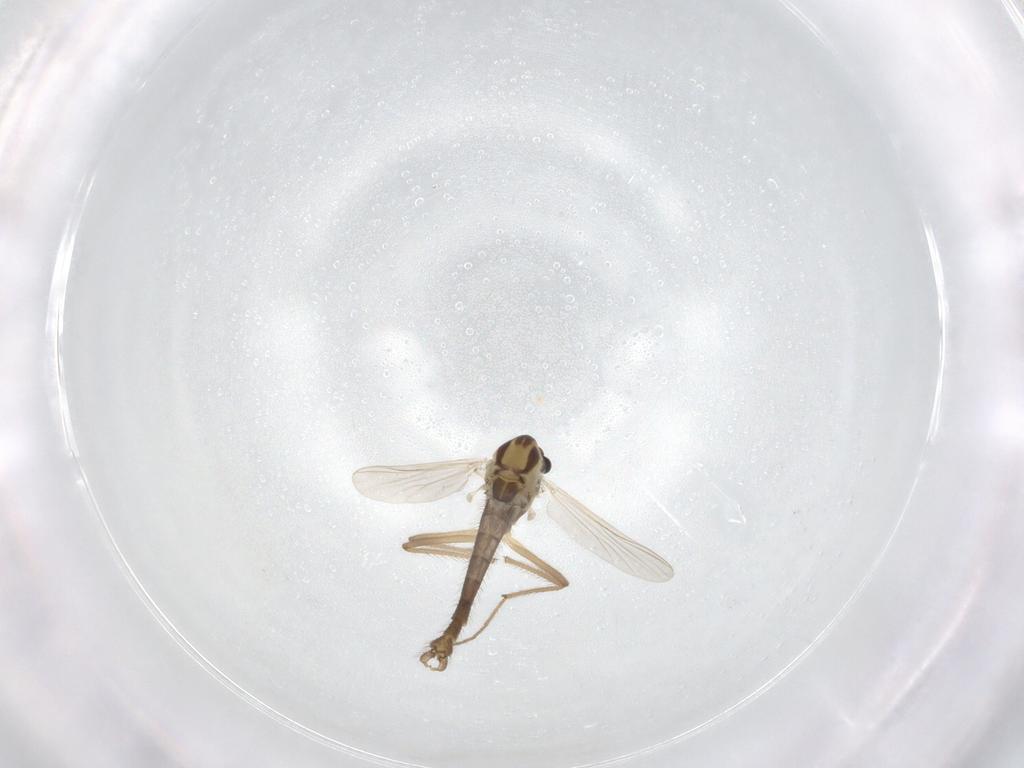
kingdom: Animalia
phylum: Arthropoda
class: Insecta
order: Diptera
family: Chironomidae
